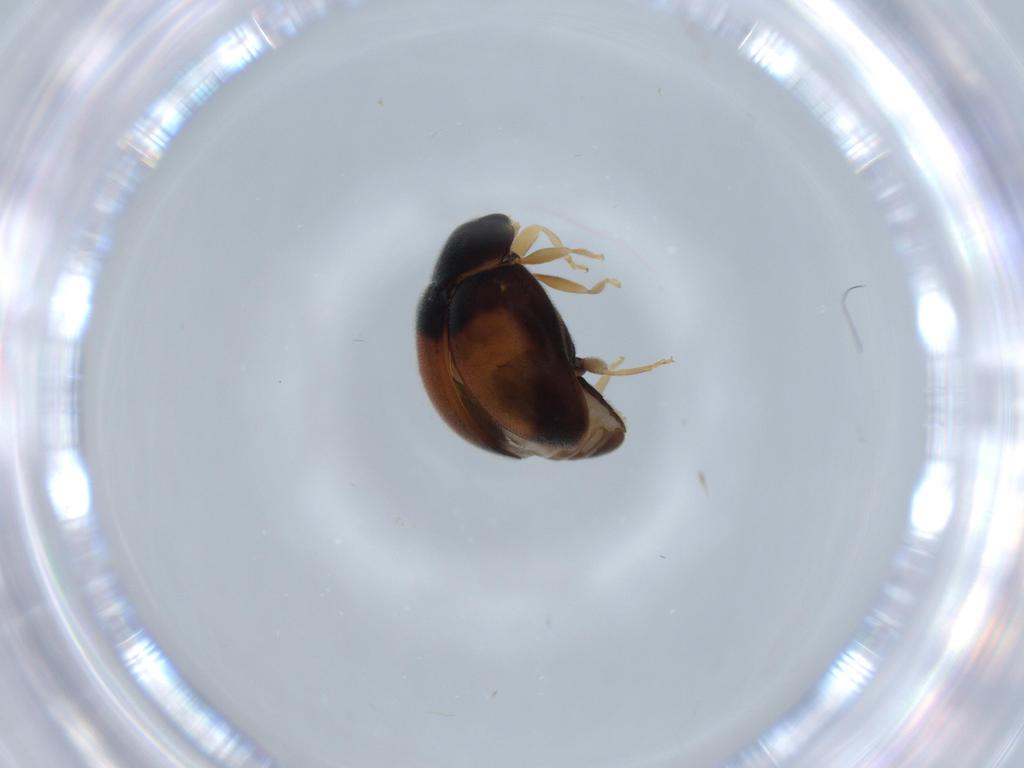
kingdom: Animalia
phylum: Arthropoda
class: Insecta
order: Coleoptera
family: Coccinellidae
